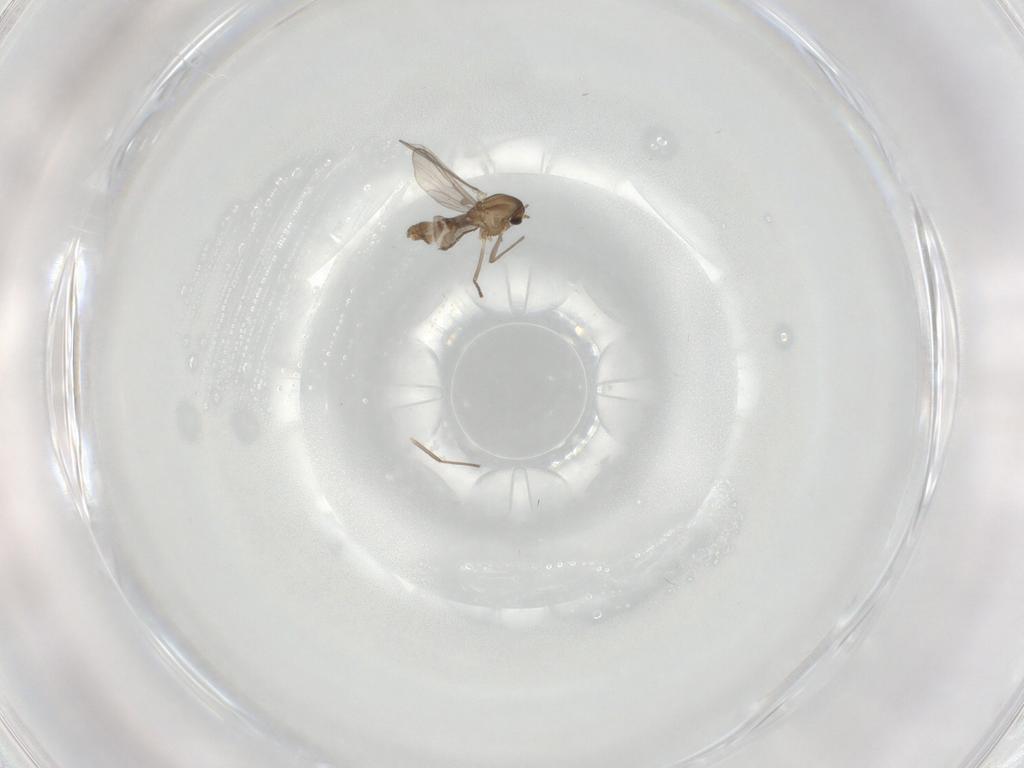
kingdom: Animalia
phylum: Arthropoda
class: Insecta
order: Diptera
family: Chironomidae
